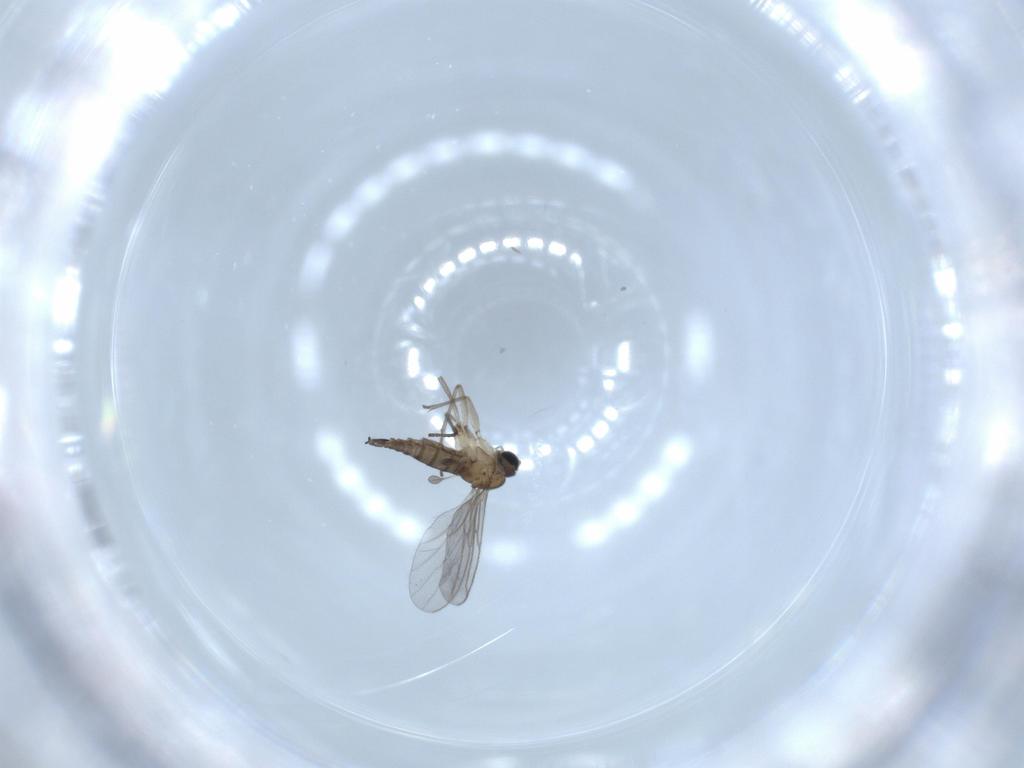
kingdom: Animalia
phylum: Arthropoda
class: Insecta
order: Diptera
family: Sciaridae
